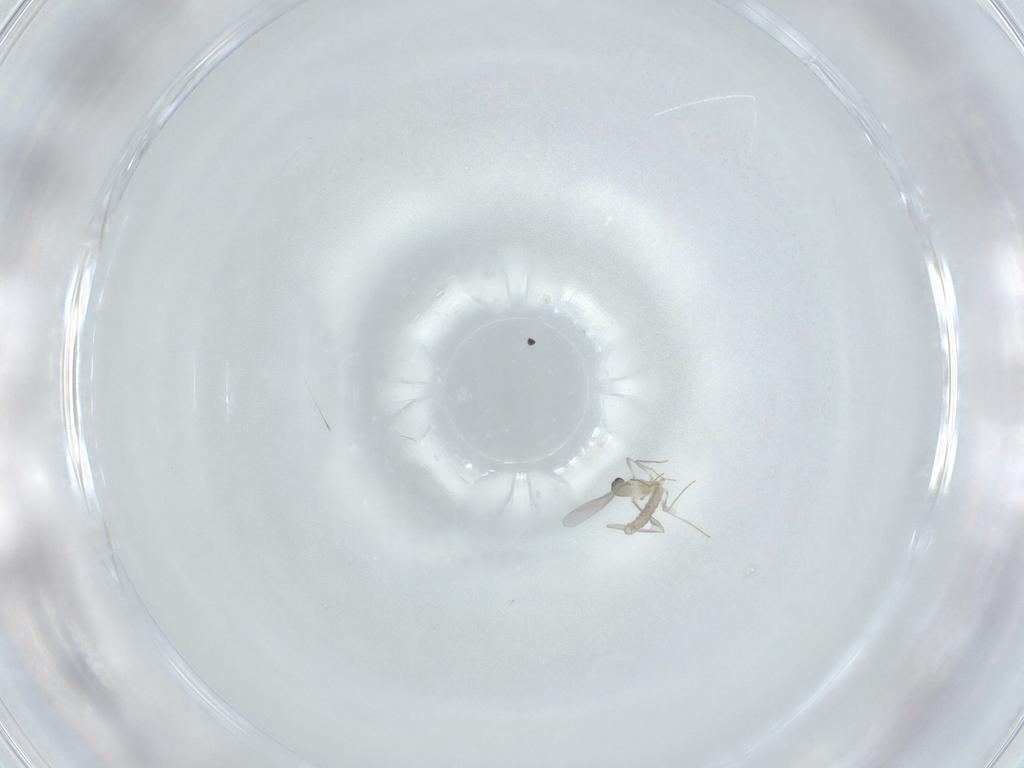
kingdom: Animalia
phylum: Arthropoda
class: Insecta
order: Diptera
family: Cecidomyiidae
